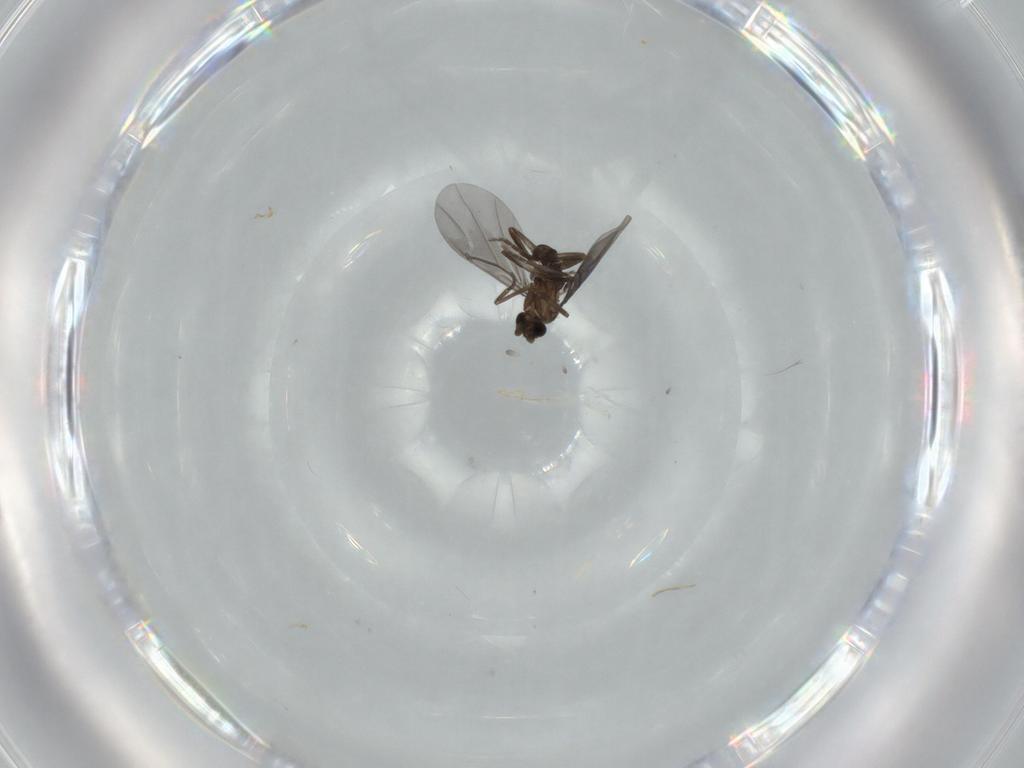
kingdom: Animalia
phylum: Arthropoda
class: Insecta
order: Diptera
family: Phoridae
